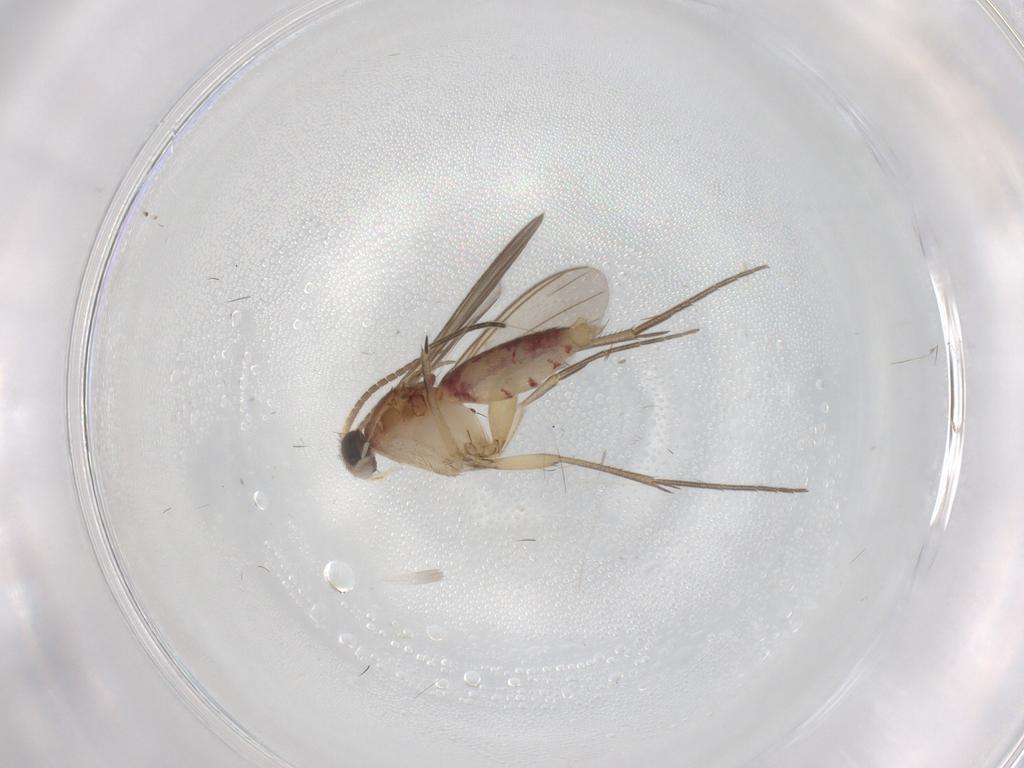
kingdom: Animalia
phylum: Arthropoda
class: Insecta
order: Diptera
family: Mycetophilidae
